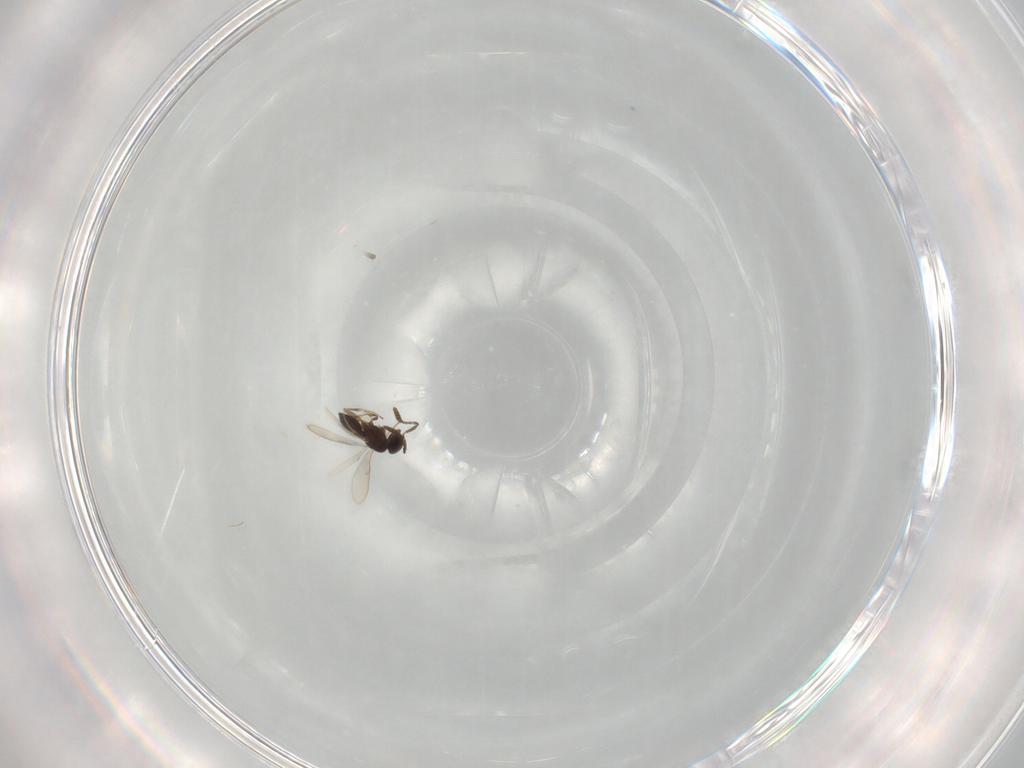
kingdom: Animalia
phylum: Arthropoda
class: Insecta
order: Hymenoptera
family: Scelionidae
